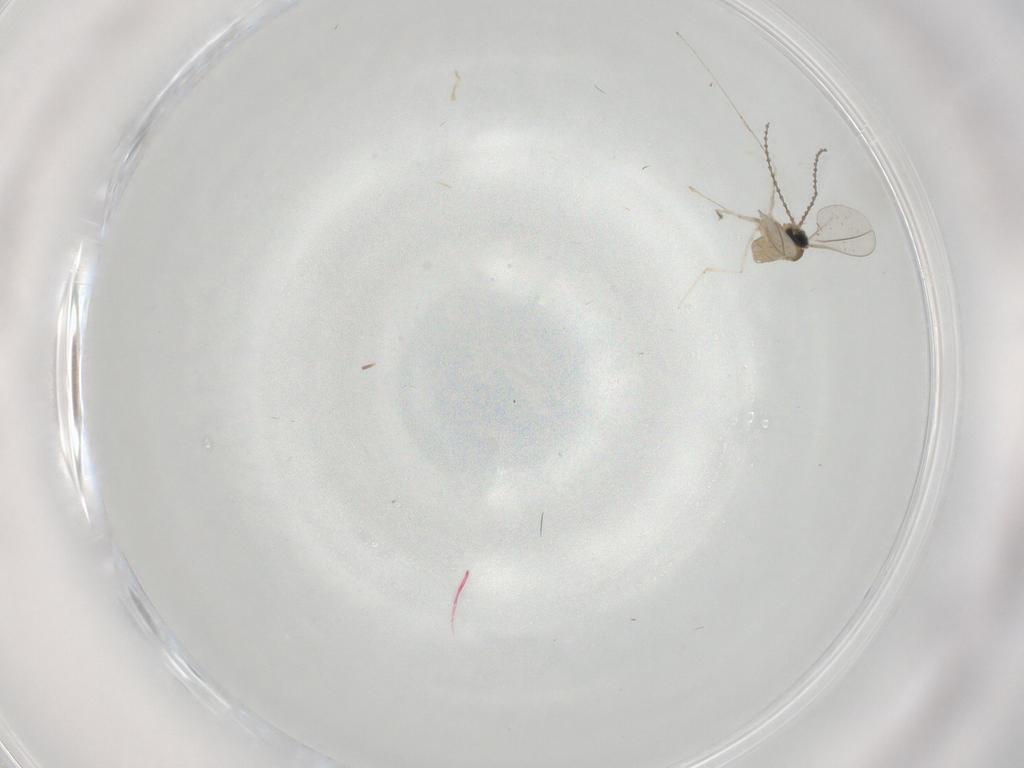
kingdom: Animalia
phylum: Arthropoda
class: Insecta
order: Diptera
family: Cecidomyiidae
